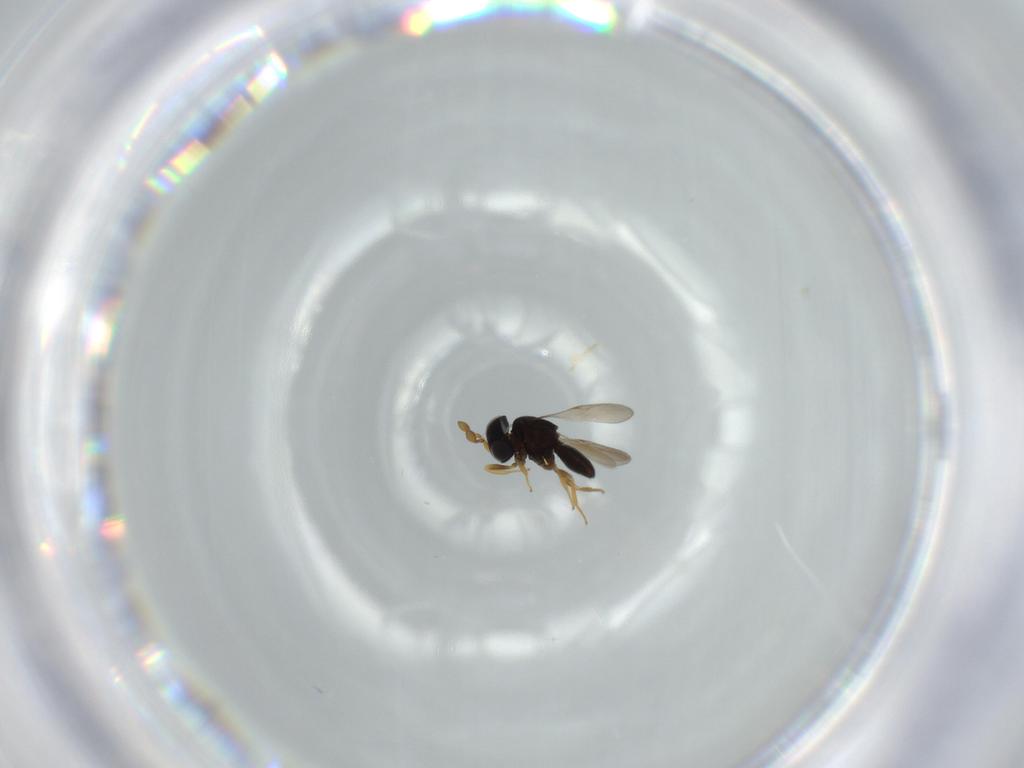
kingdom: Animalia
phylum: Arthropoda
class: Insecta
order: Hymenoptera
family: Scelionidae
